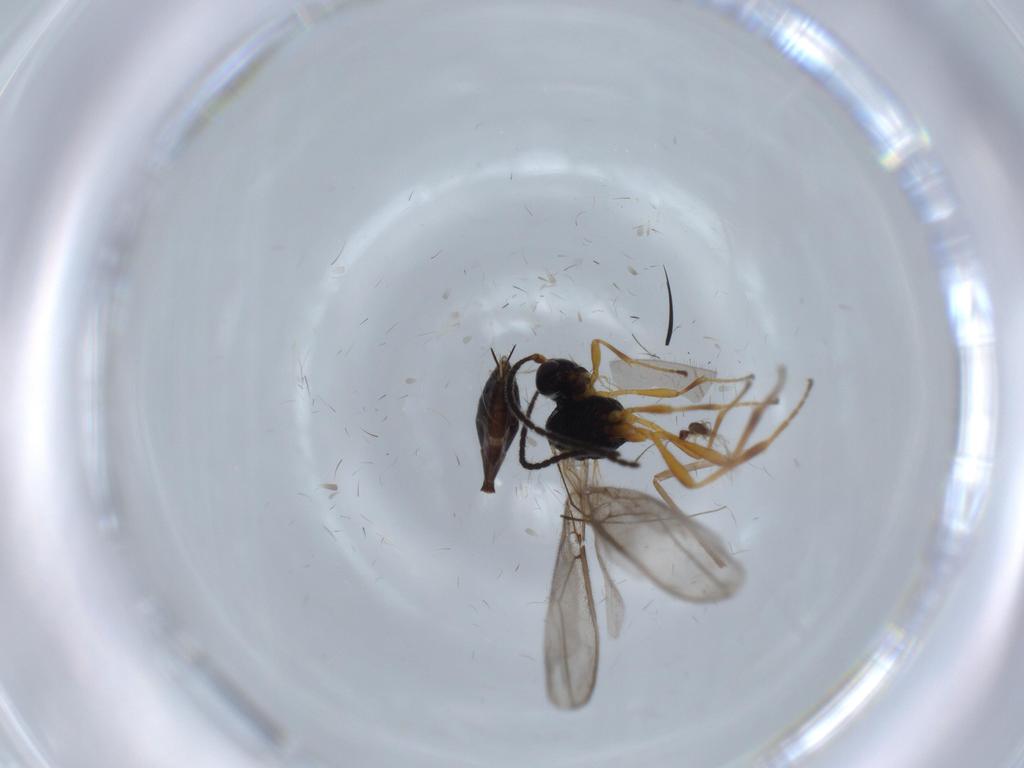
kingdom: Animalia
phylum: Arthropoda
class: Insecta
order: Hymenoptera
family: Braconidae
